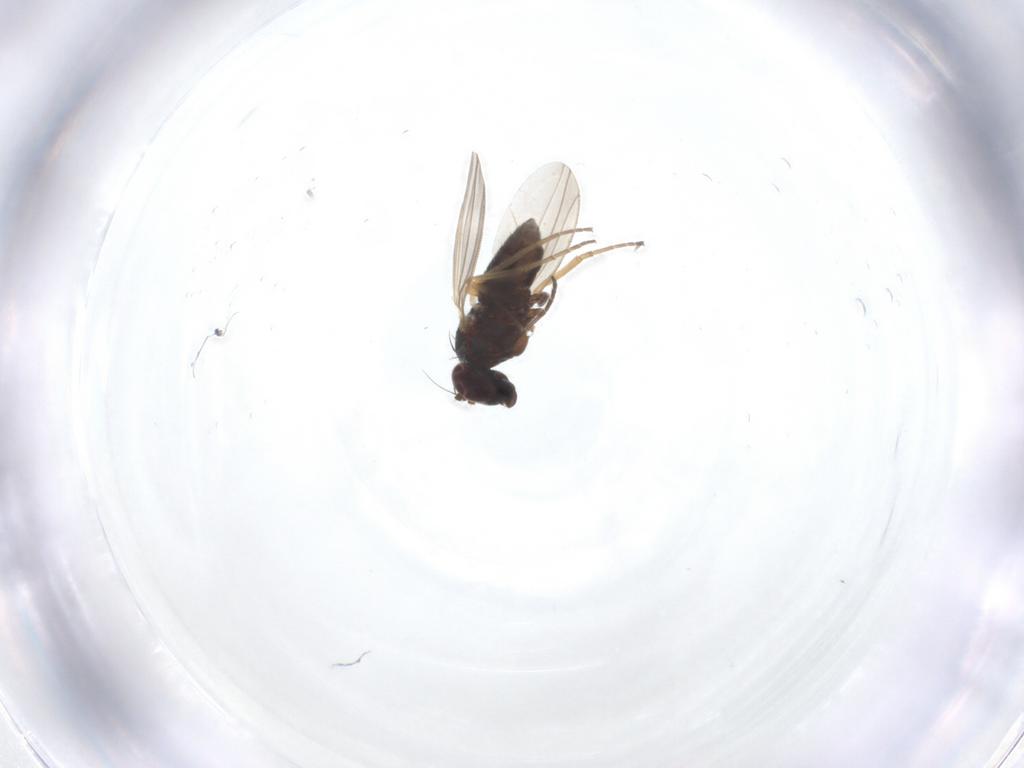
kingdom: Animalia
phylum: Arthropoda
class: Insecta
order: Diptera
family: Dolichopodidae
